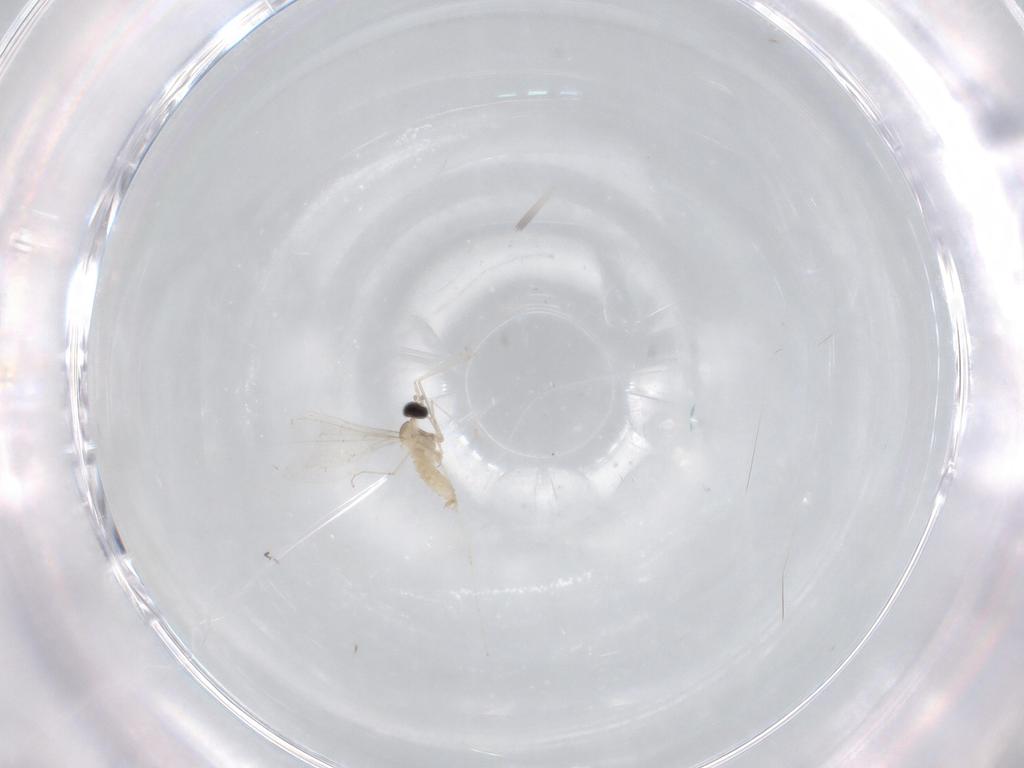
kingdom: Animalia
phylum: Arthropoda
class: Insecta
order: Diptera
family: Cecidomyiidae
